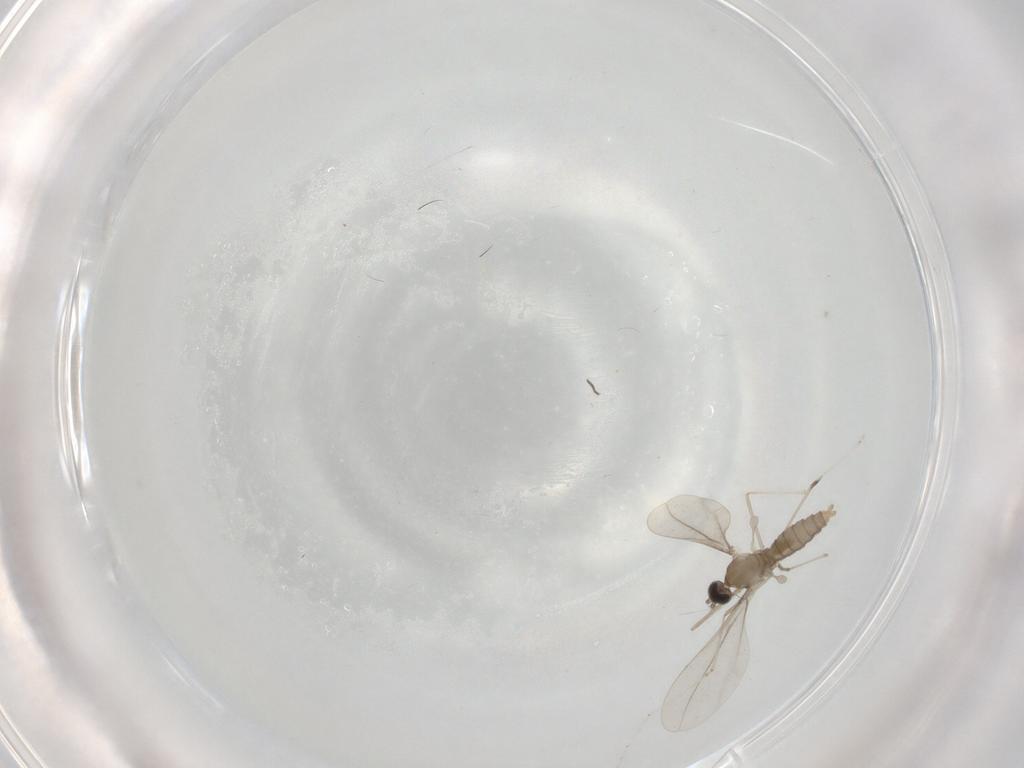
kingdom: Animalia
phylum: Arthropoda
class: Insecta
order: Diptera
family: Cecidomyiidae
